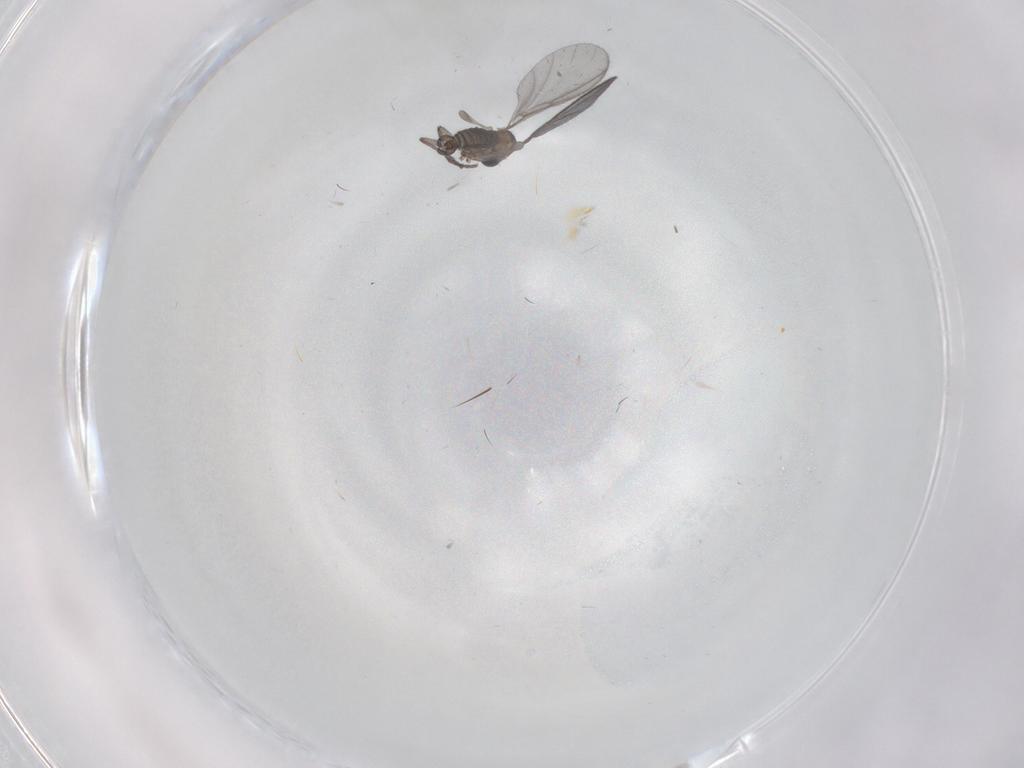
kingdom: Animalia
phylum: Arthropoda
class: Insecta
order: Diptera
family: Sciaridae
